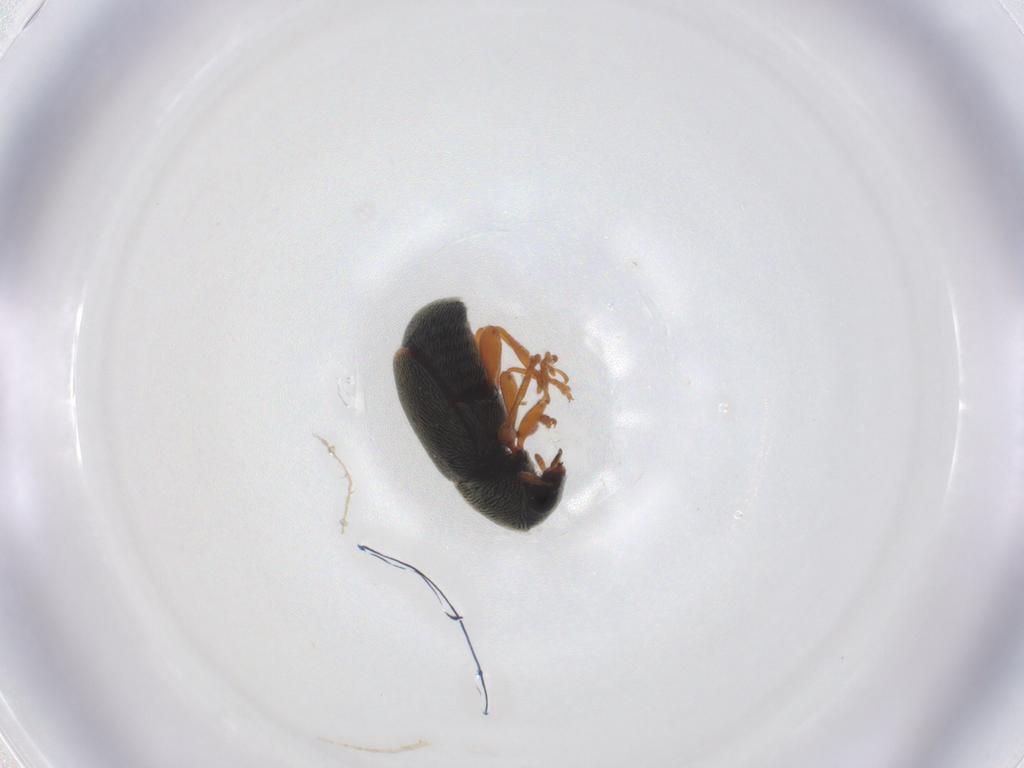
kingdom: Animalia
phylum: Arthropoda
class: Insecta
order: Coleoptera
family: Anthribidae
